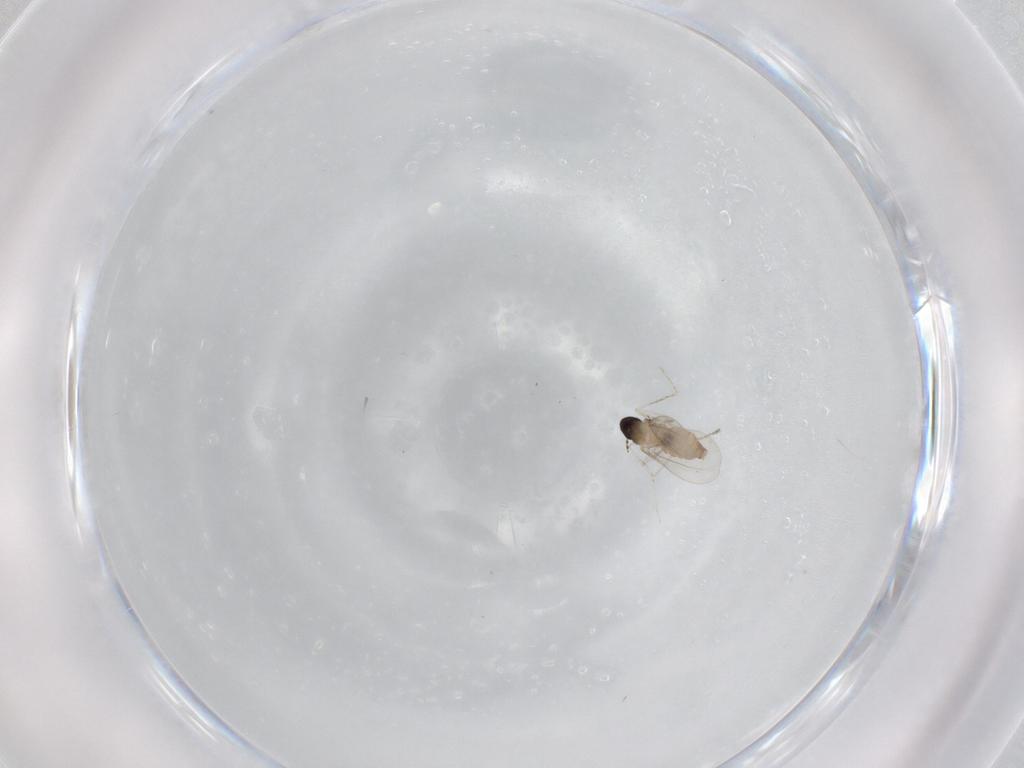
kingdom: Animalia
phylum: Arthropoda
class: Insecta
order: Diptera
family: Cecidomyiidae
